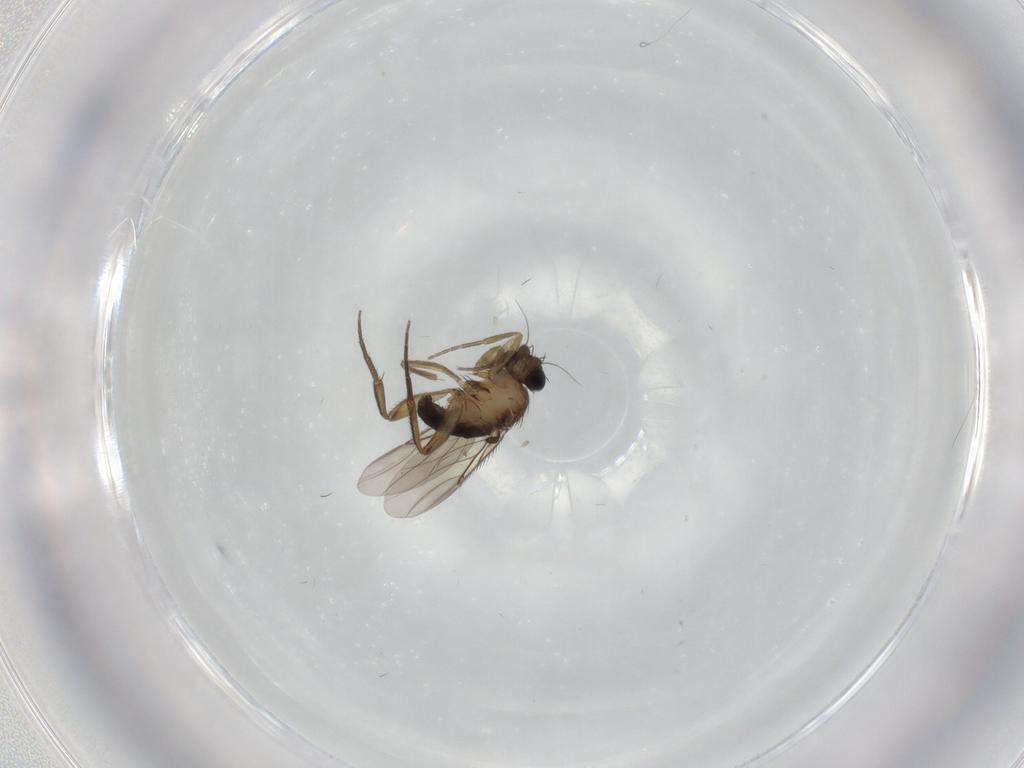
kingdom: Animalia
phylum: Arthropoda
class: Insecta
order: Diptera
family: Phoridae
